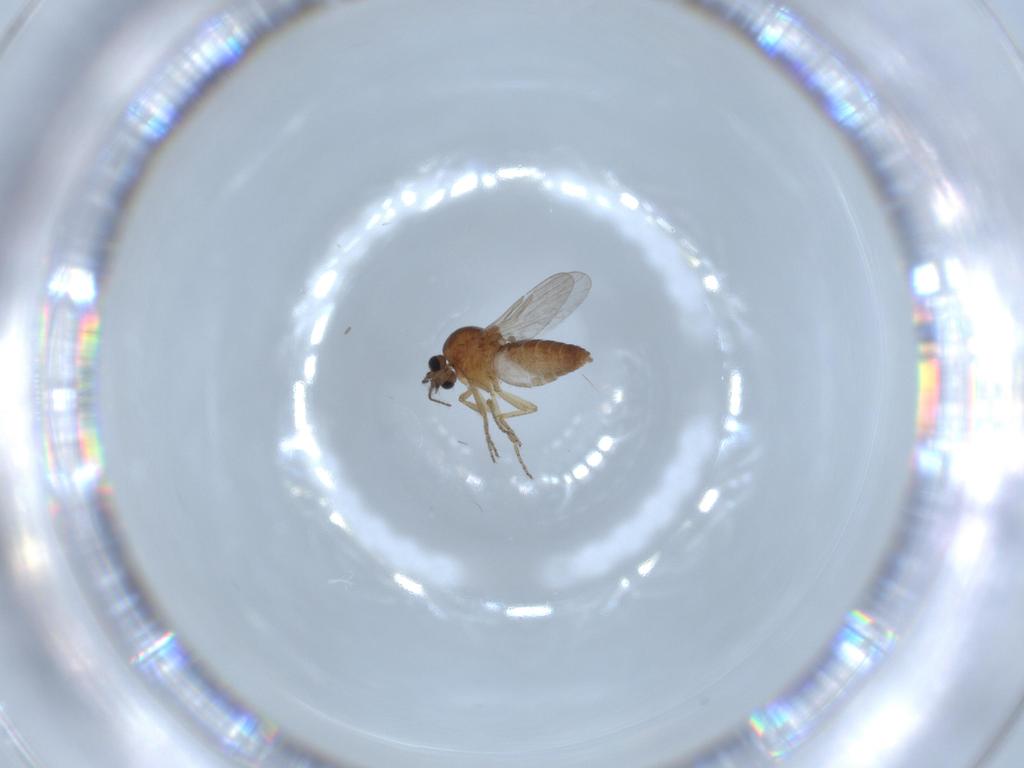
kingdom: Animalia
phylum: Arthropoda
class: Insecta
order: Diptera
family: Ceratopogonidae
